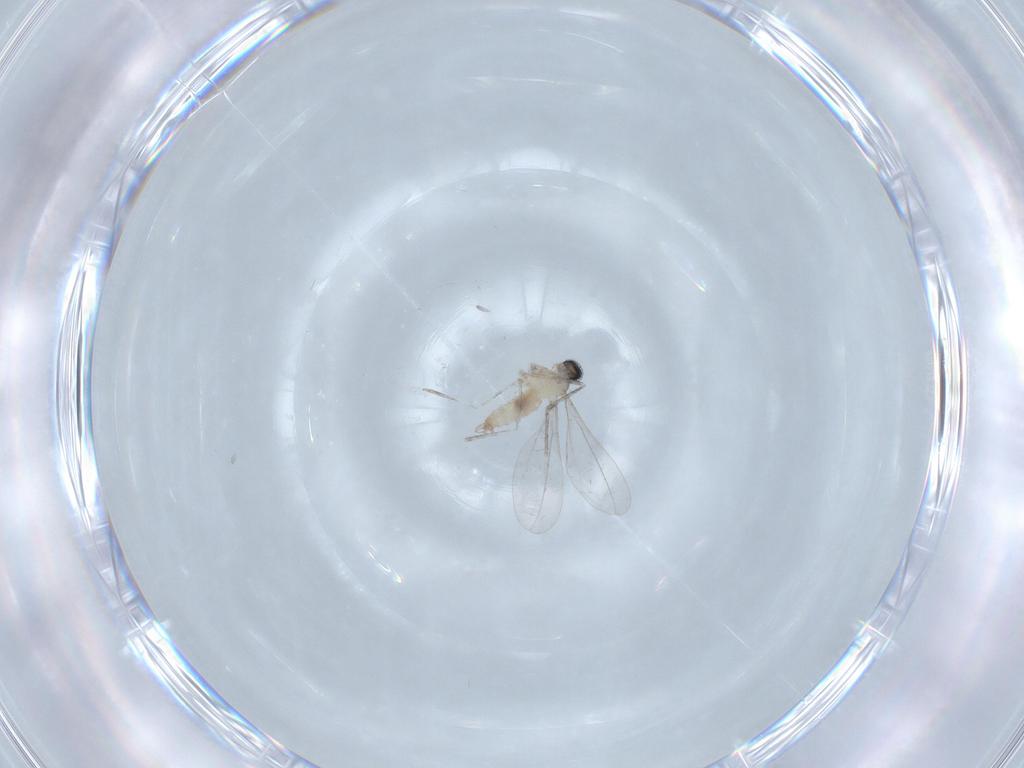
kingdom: Animalia
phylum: Arthropoda
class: Insecta
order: Diptera
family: Cecidomyiidae
